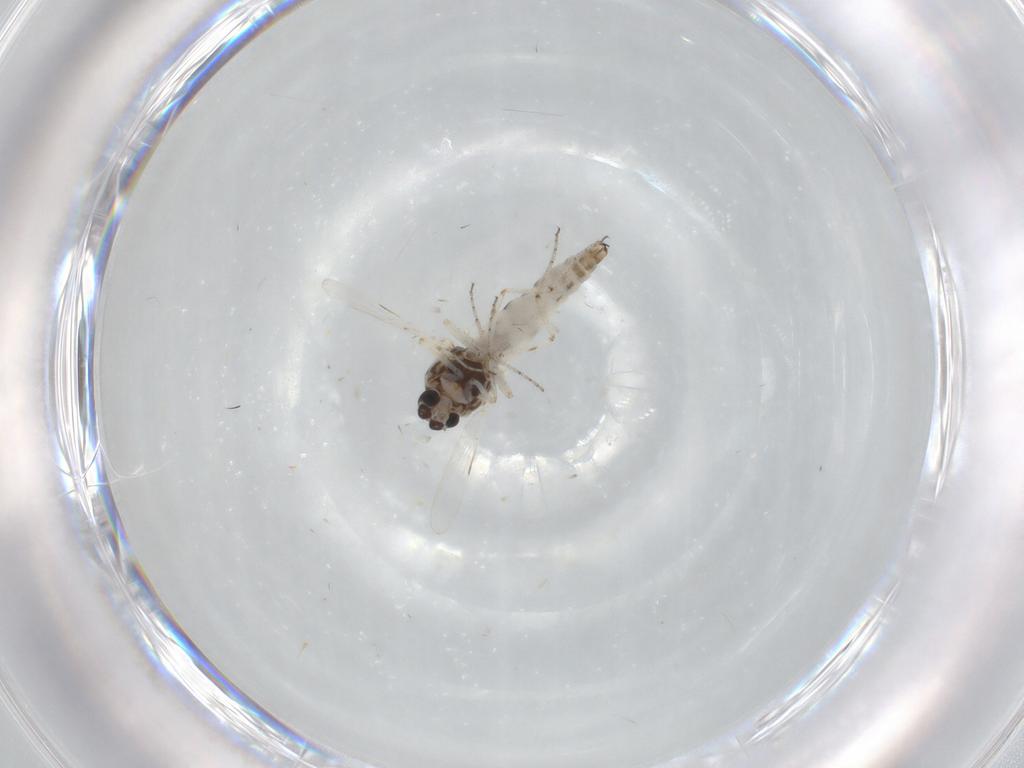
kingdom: Animalia
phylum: Arthropoda
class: Insecta
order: Diptera
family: Ceratopogonidae
